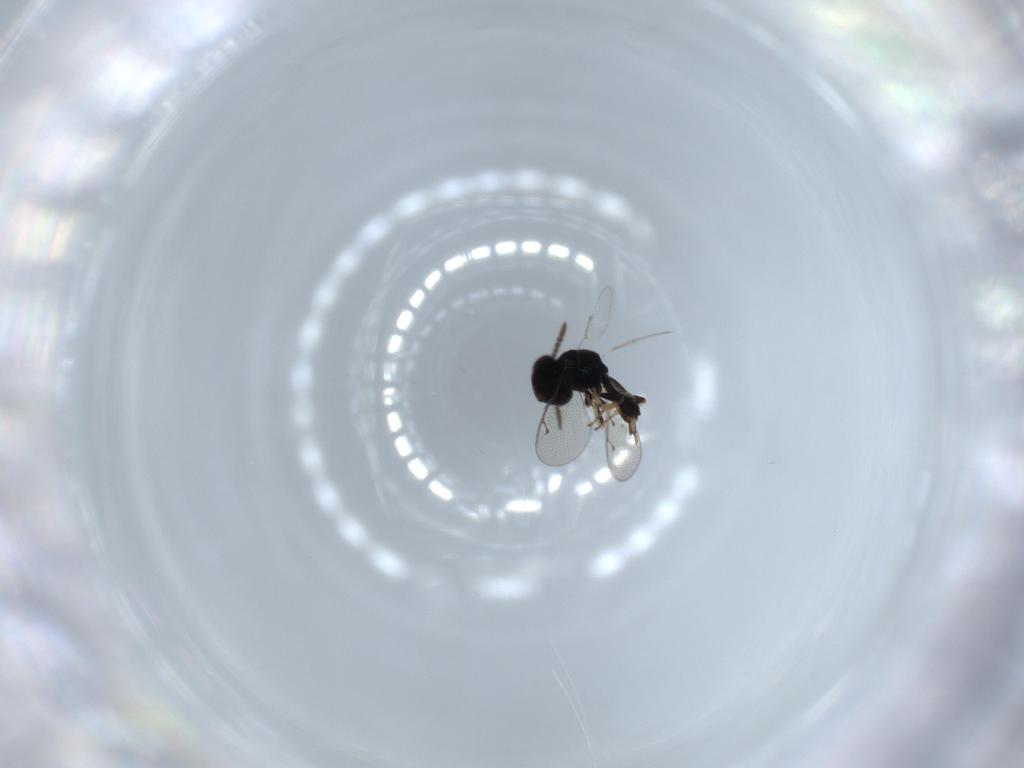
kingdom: Animalia
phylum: Arthropoda
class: Insecta
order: Hymenoptera
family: Pteromalidae
